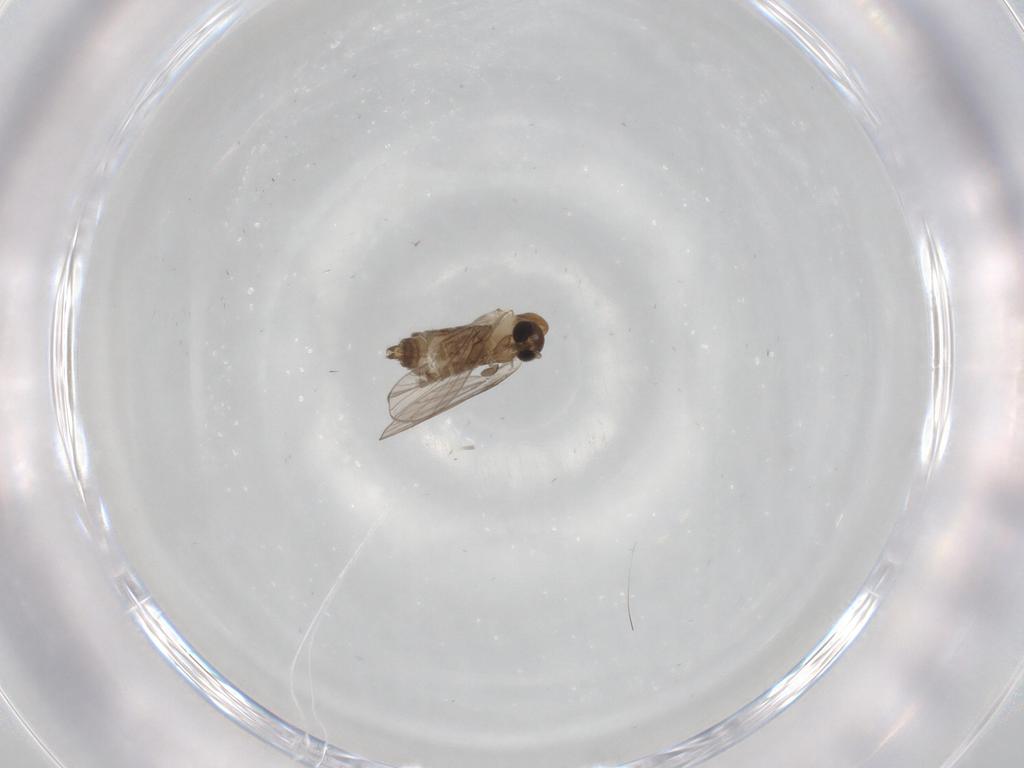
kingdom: Animalia
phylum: Arthropoda
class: Insecta
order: Diptera
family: Psychodidae
